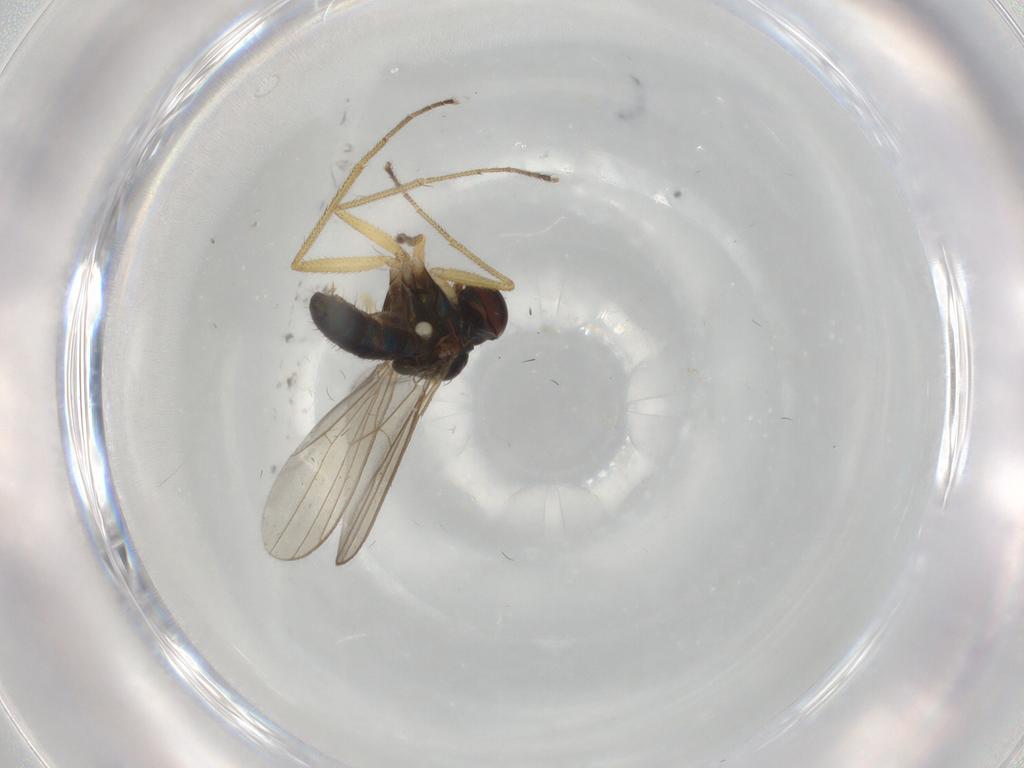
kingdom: Animalia
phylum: Arthropoda
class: Insecta
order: Diptera
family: Dolichopodidae
